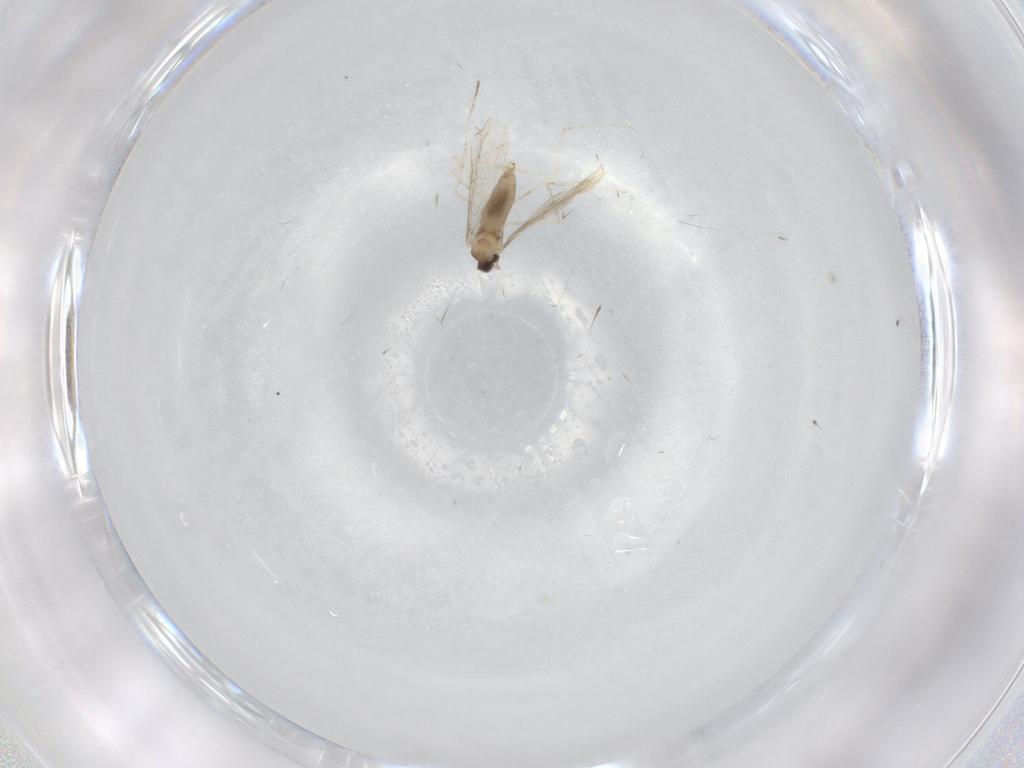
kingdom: Animalia
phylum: Arthropoda
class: Insecta
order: Diptera
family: Cecidomyiidae
